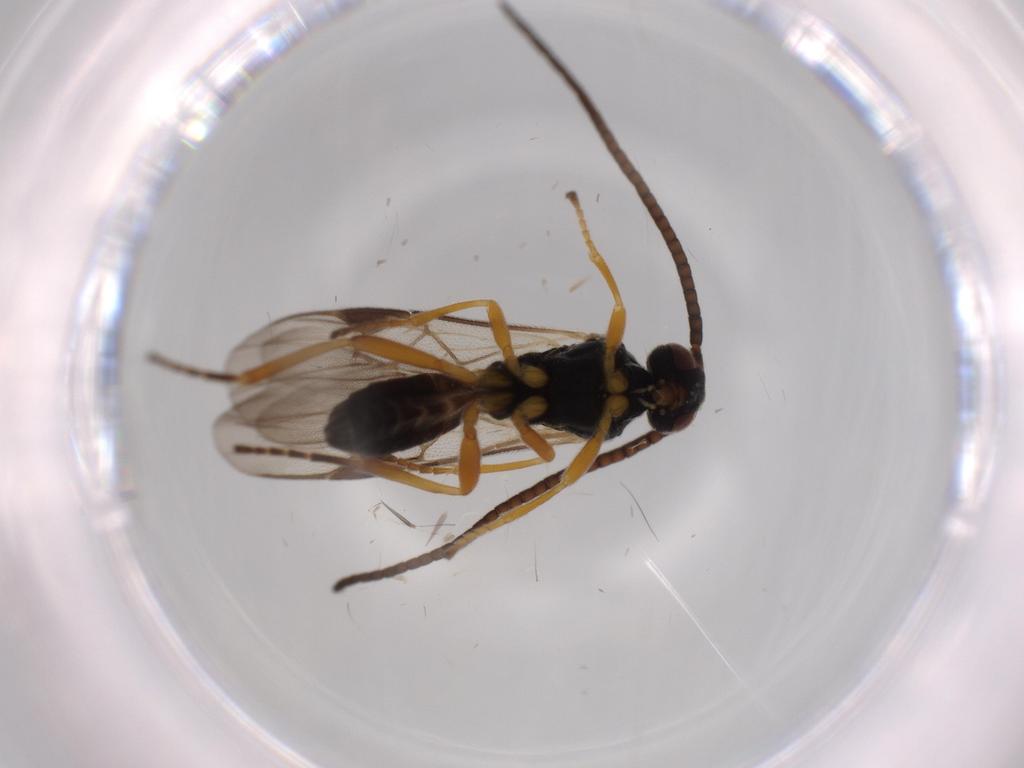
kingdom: Animalia
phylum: Arthropoda
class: Insecta
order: Hymenoptera
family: Braconidae
